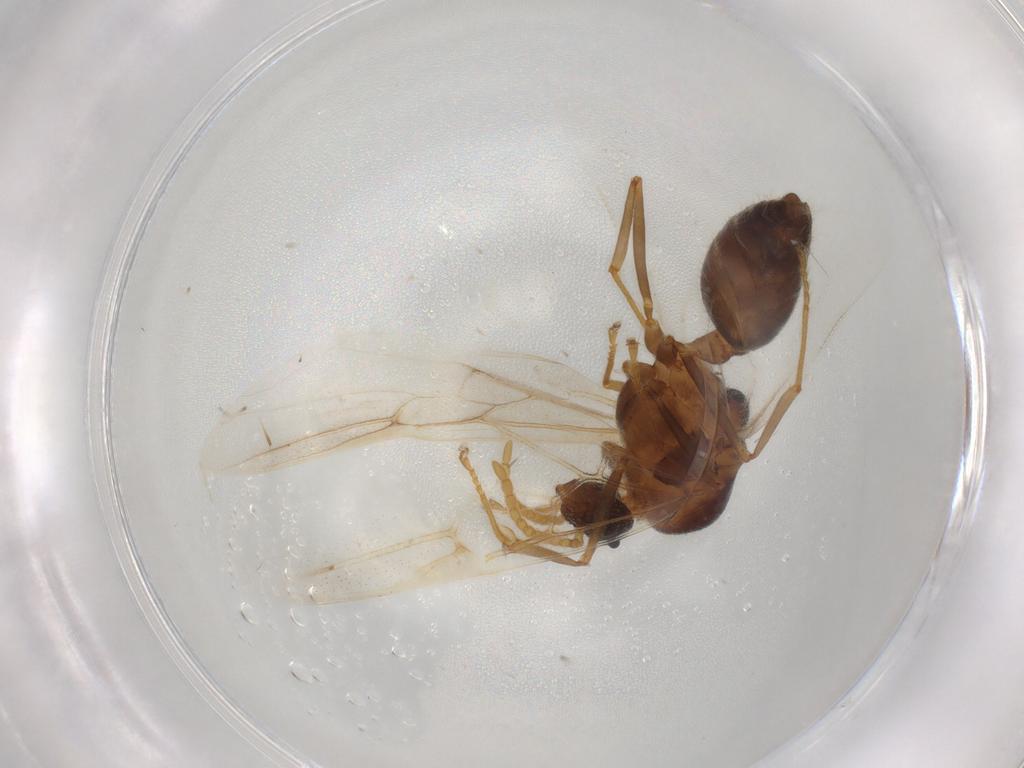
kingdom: Animalia
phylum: Arthropoda
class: Insecta
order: Hymenoptera
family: Formicidae
